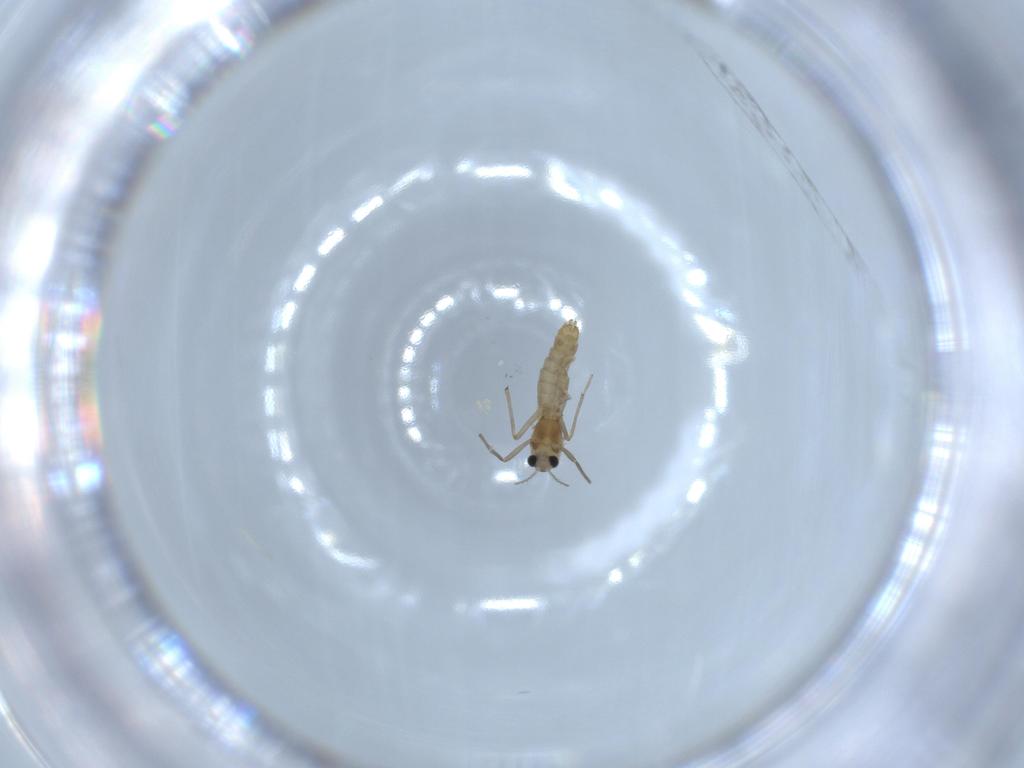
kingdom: Animalia
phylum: Arthropoda
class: Insecta
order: Diptera
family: Chironomidae
